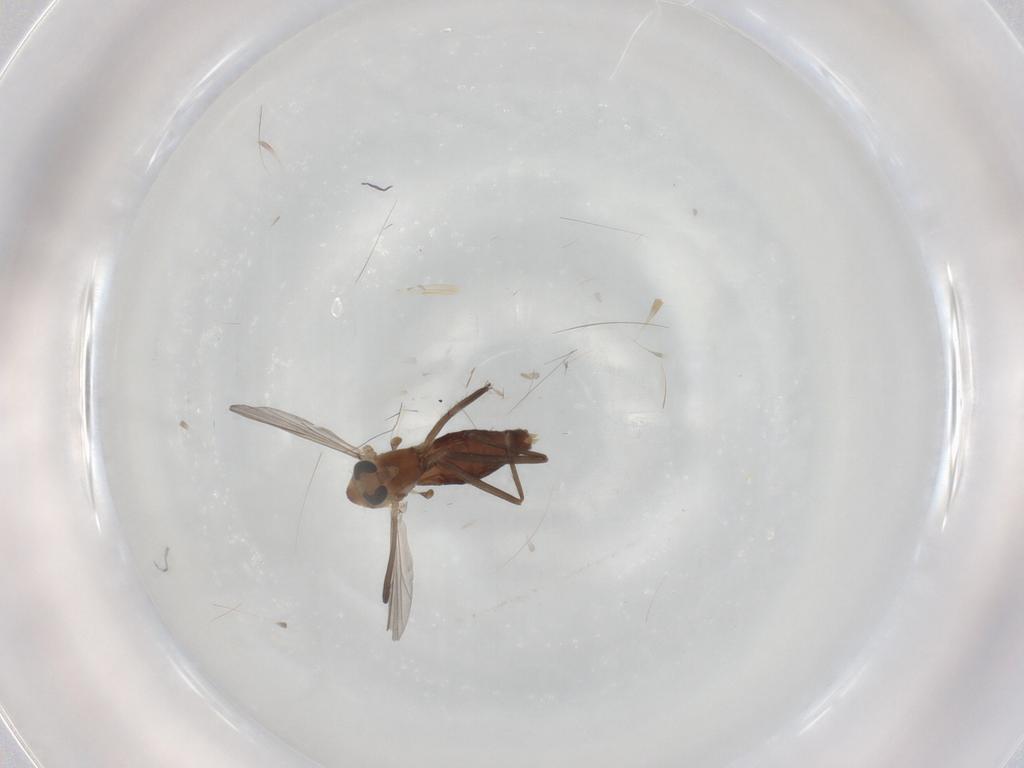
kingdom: Animalia
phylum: Arthropoda
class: Insecta
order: Diptera
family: Chironomidae
